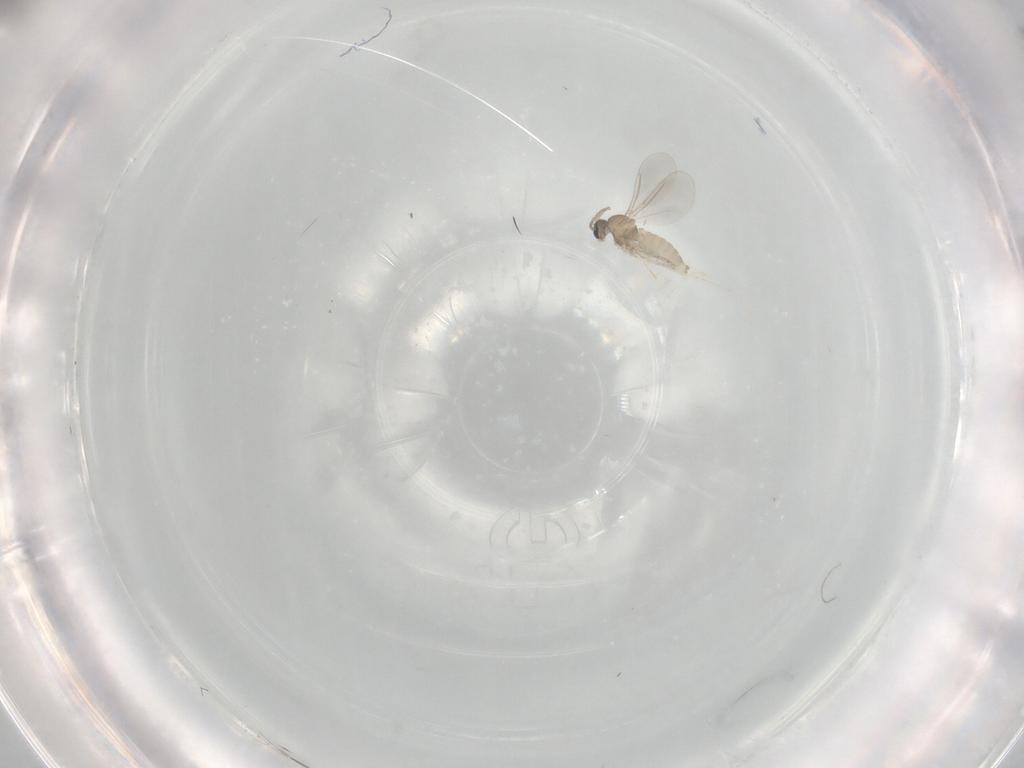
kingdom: Animalia
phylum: Arthropoda
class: Insecta
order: Diptera
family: Cecidomyiidae
